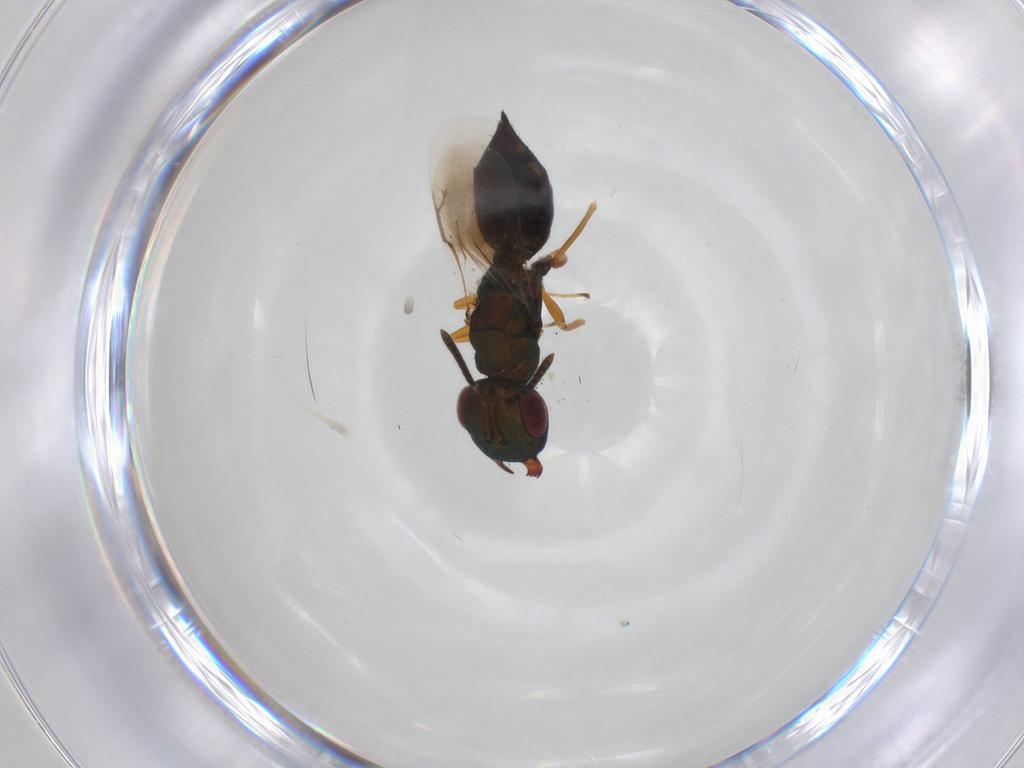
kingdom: Animalia
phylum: Arthropoda
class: Insecta
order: Hymenoptera
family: Pteromalidae
